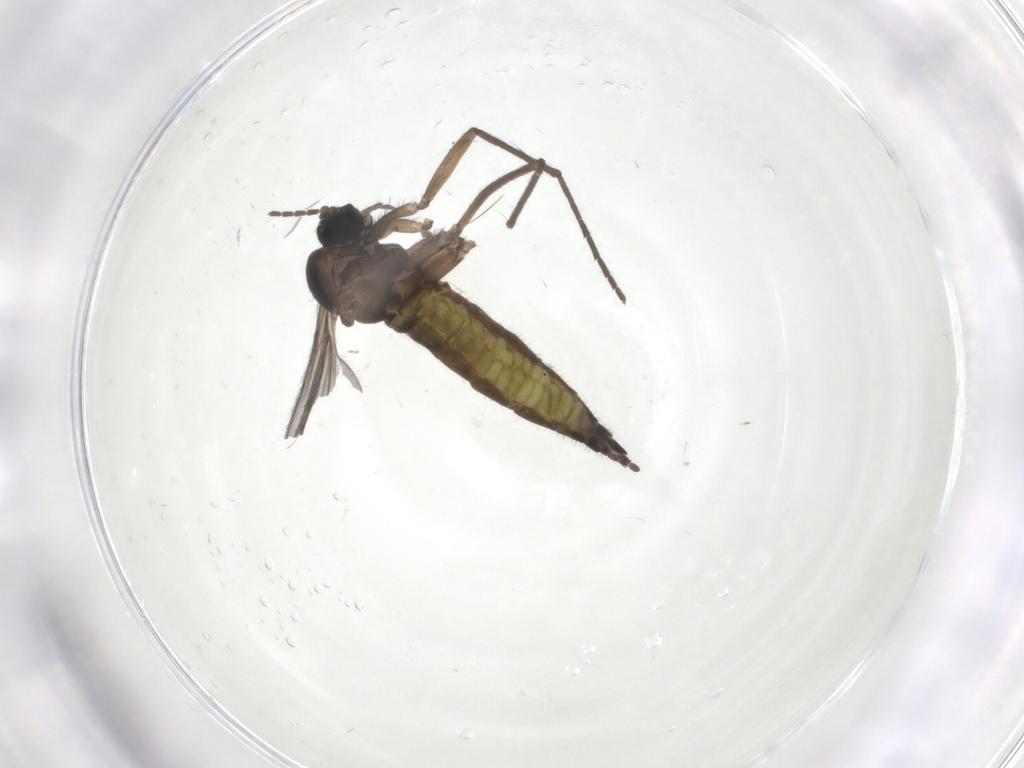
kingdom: Animalia
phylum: Arthropoda
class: Insecta
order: Diptera
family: Sciaridae
